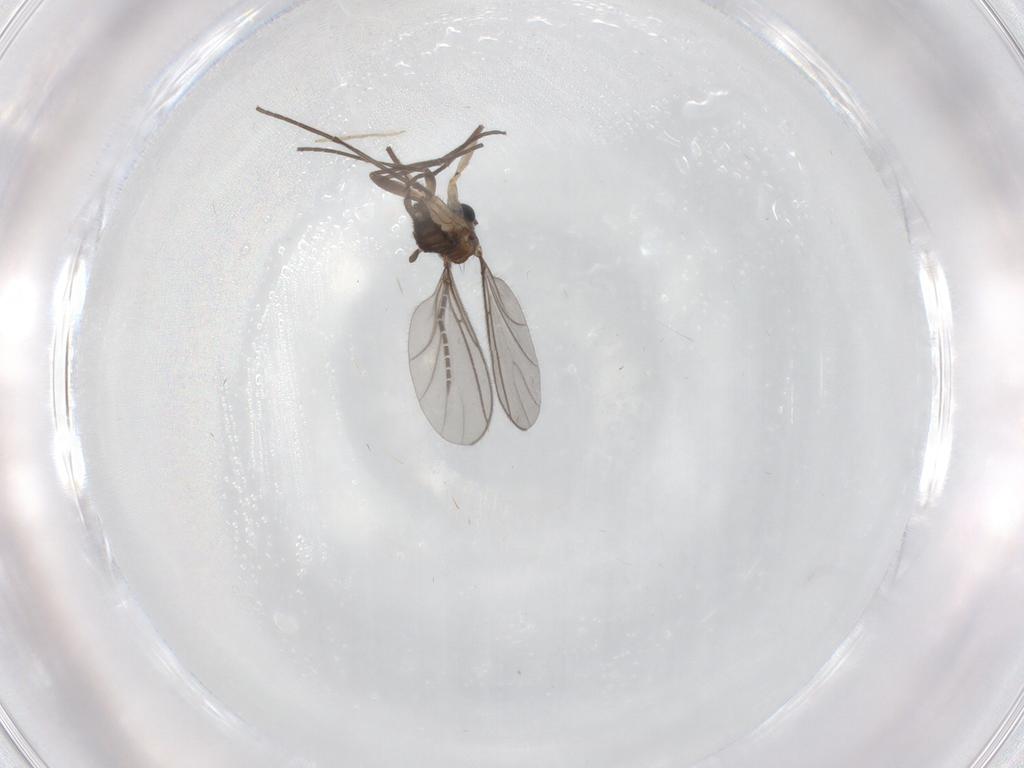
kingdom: Animalia
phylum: Arthropoda
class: Insecta
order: Diptera
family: Sciaridae
